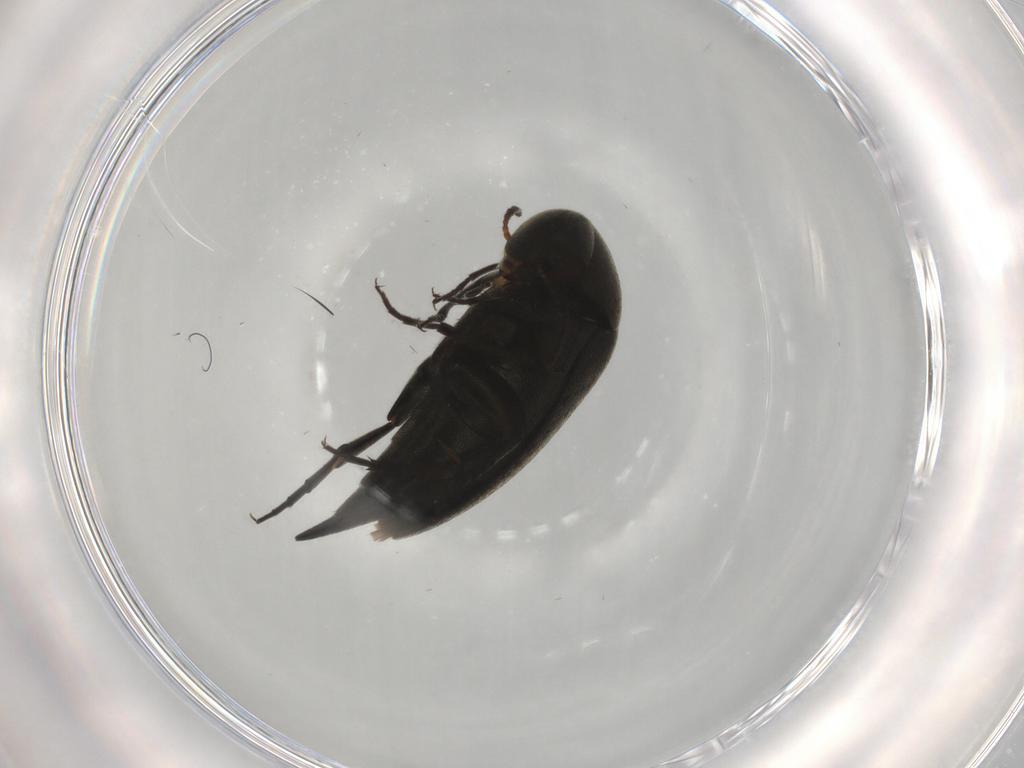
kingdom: Animalia
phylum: Arthropoda
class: Insecta
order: Coleoptera
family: Mordellidae
